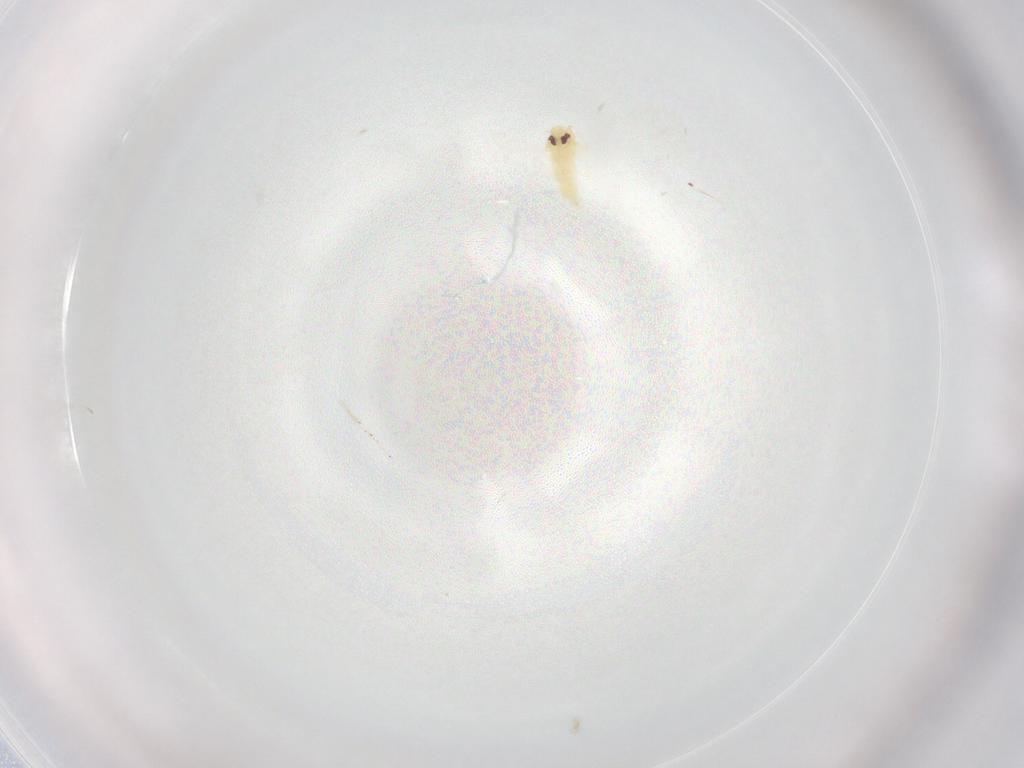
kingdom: Animalia
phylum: Arthropoda
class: Insecta
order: Hemiptera
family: Aleyrodidae
